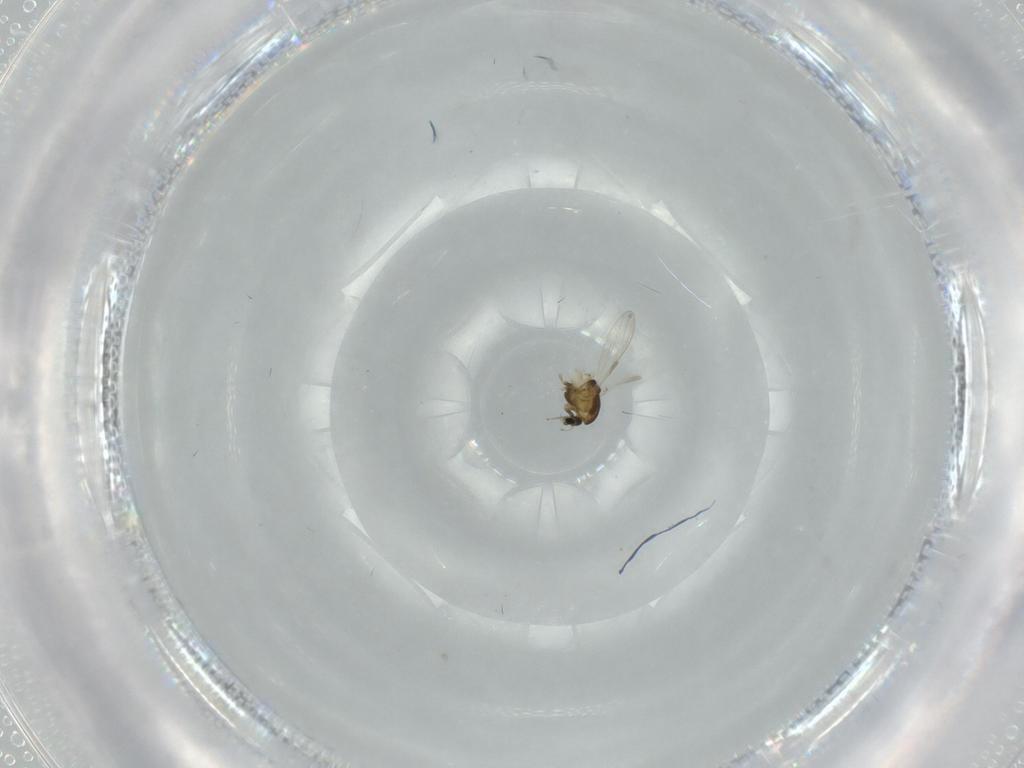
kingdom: Animalia
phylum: Arthropoda
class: Insecta
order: Diptera
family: Chironomidae
